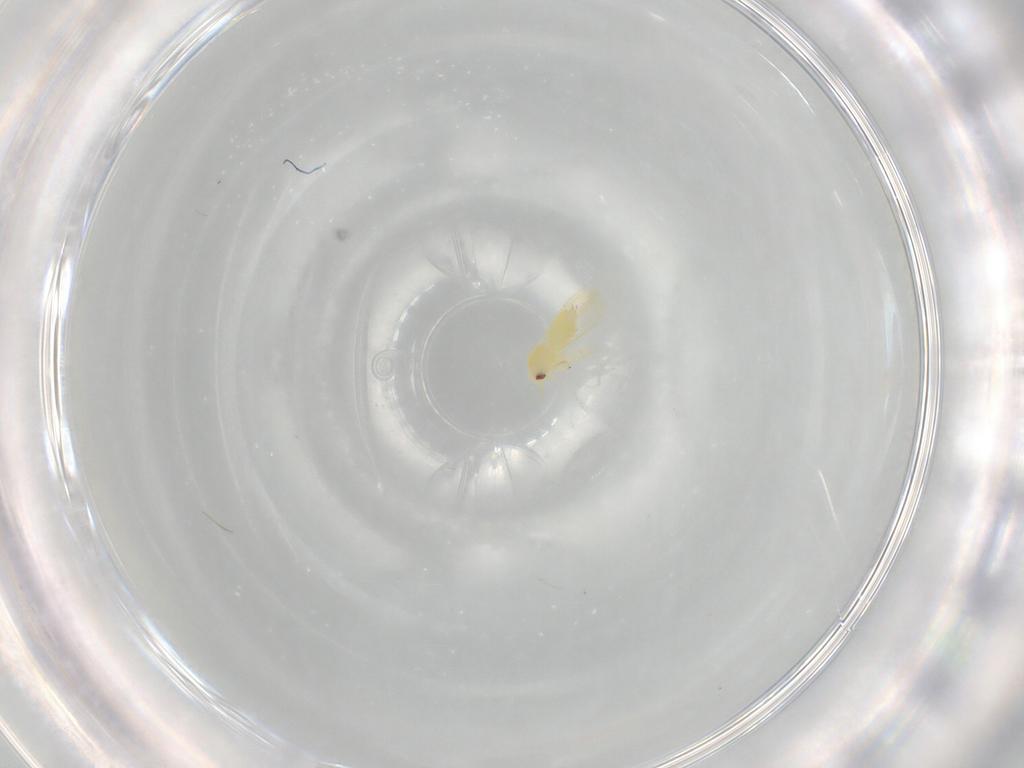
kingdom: Animalia
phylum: Arthropoda
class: Insecta
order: Hemiptera
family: Aleyrodidae
